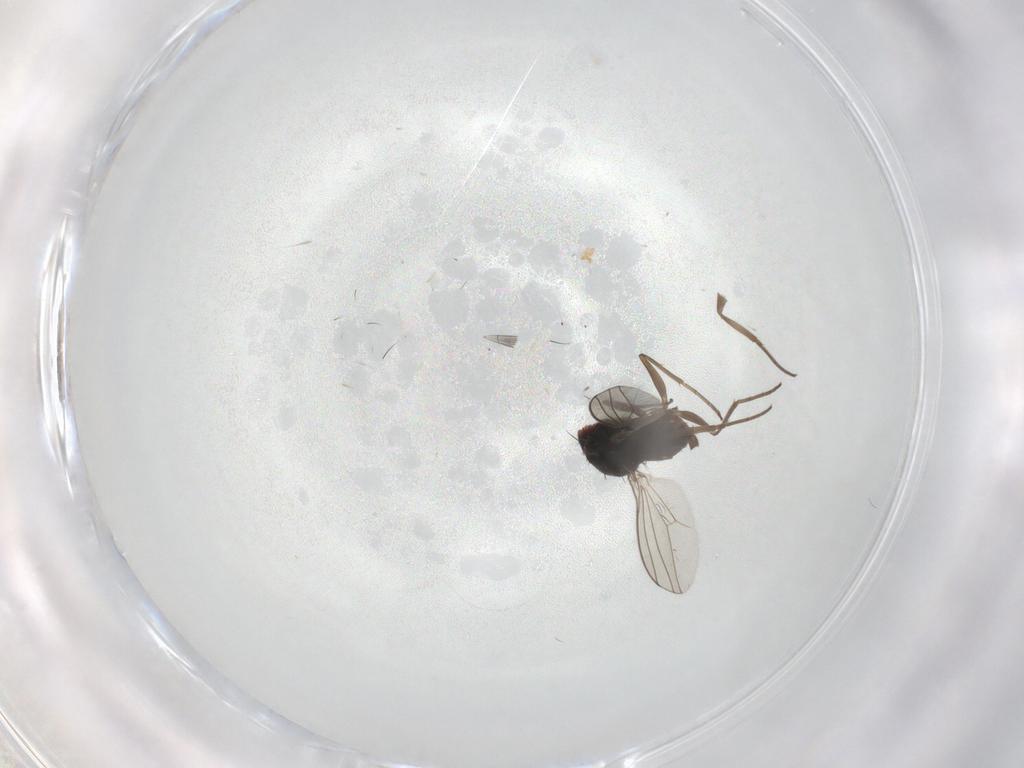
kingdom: Animalia
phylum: Arthropoda
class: Insecta
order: Diptera
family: Dolichopodidae
